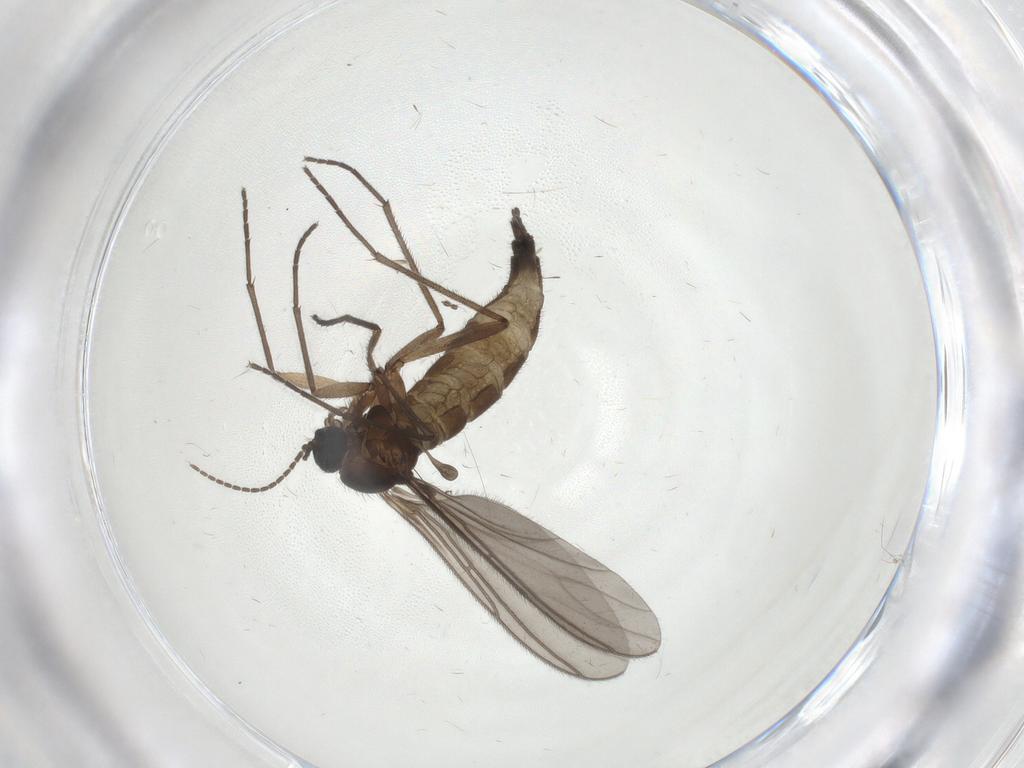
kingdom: Animalia
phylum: Arthropoda
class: Insecta
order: Diptera
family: Sciaridae
